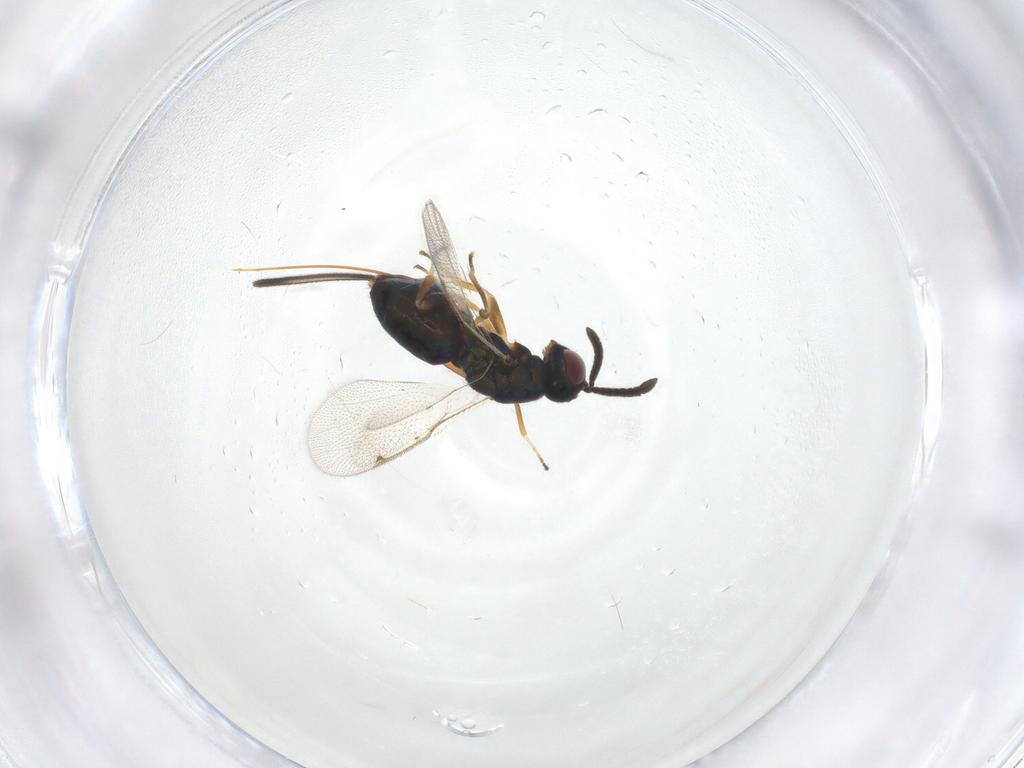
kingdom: Animalia
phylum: Arthropoda
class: Insecta
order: Hymenoptera
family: Torymidae
